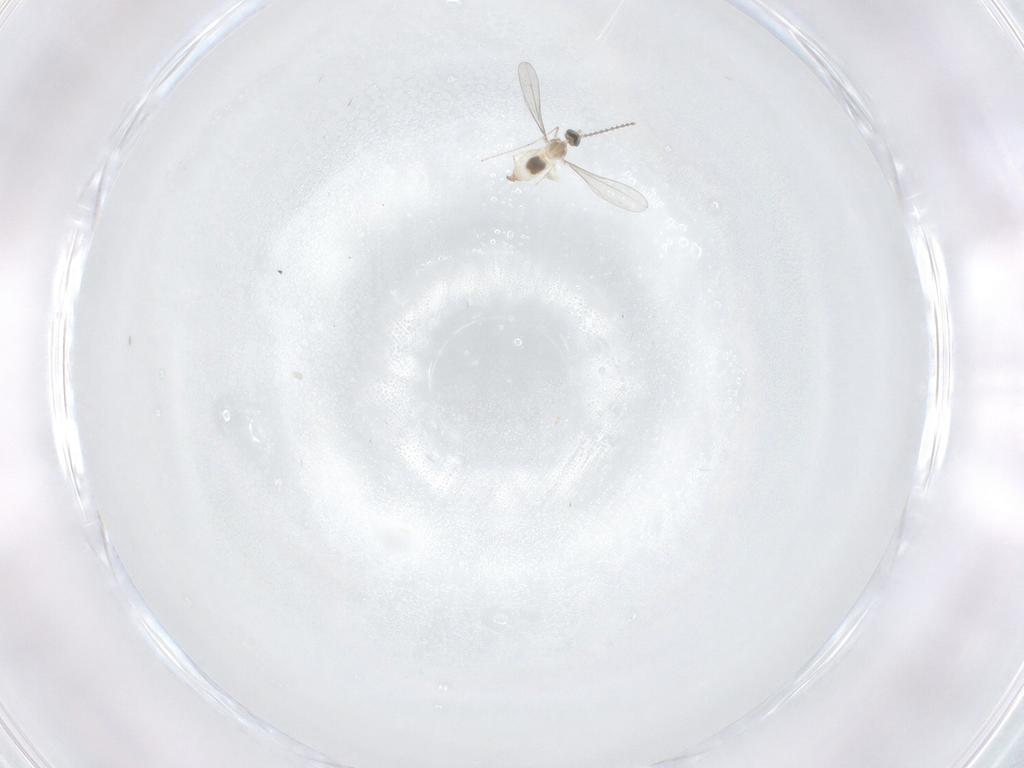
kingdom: Animalia
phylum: Arthropoda
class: Insecta
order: Diptera
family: Cecidomyiidae
